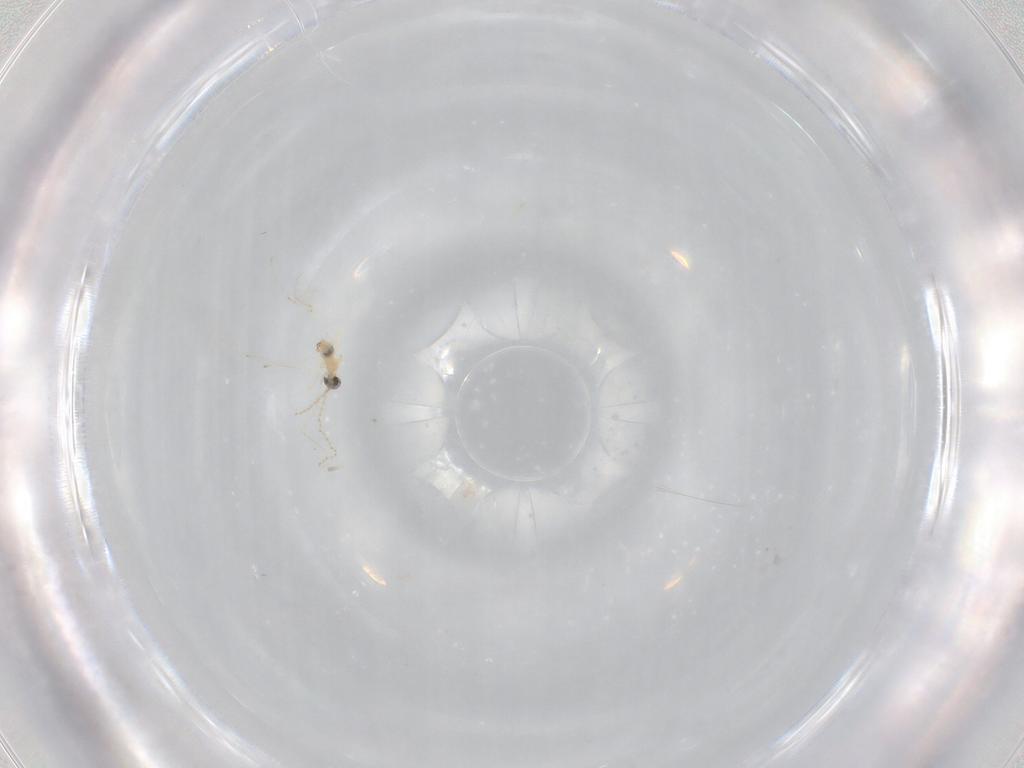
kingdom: Animalia
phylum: Arthropoda
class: Insecta
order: Diptera
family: Cecidomyiidae
